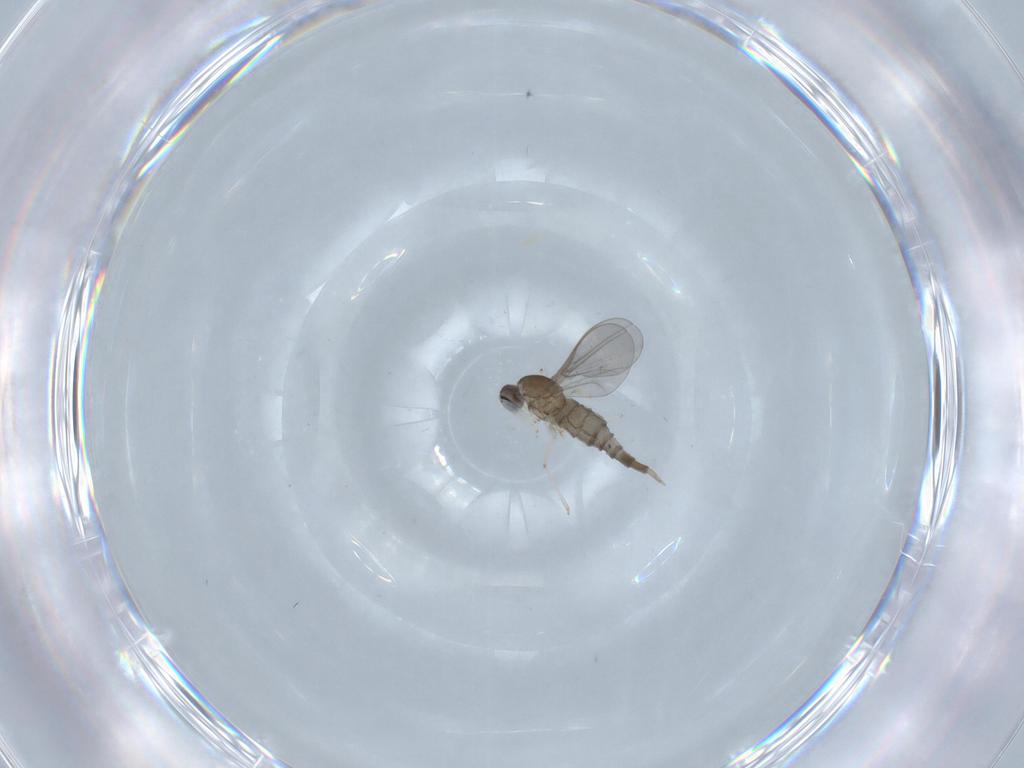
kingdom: Animalia
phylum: Arthropoda
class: Insecta
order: Diptera
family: Cecidomyiidae
